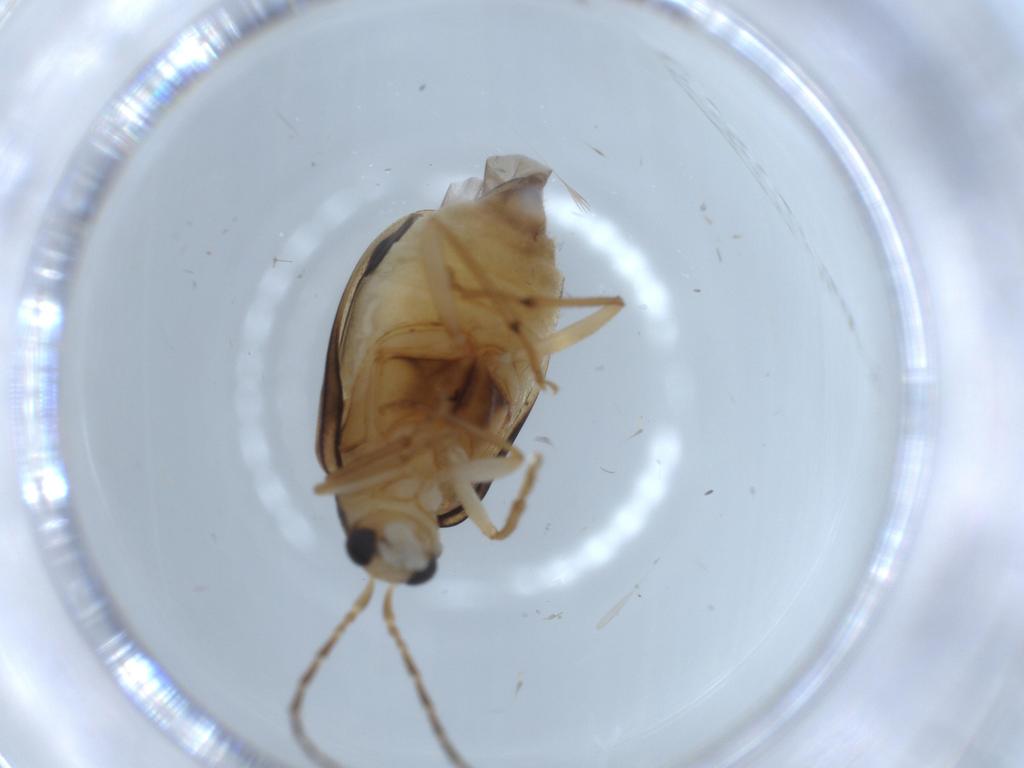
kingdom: Animalia
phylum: Arthropoda
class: Insecta
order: Coleoptera
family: Chrysomelidae
